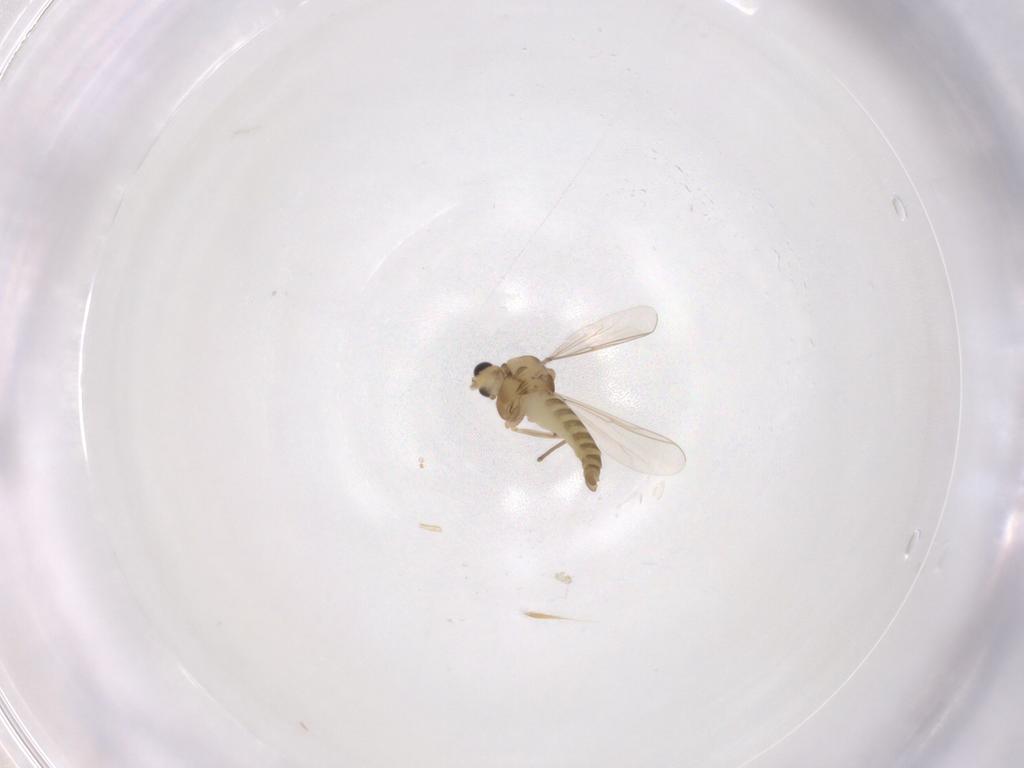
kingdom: Animalia
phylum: Arthropoda
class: Insecta
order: Diptera
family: Chironomidae
